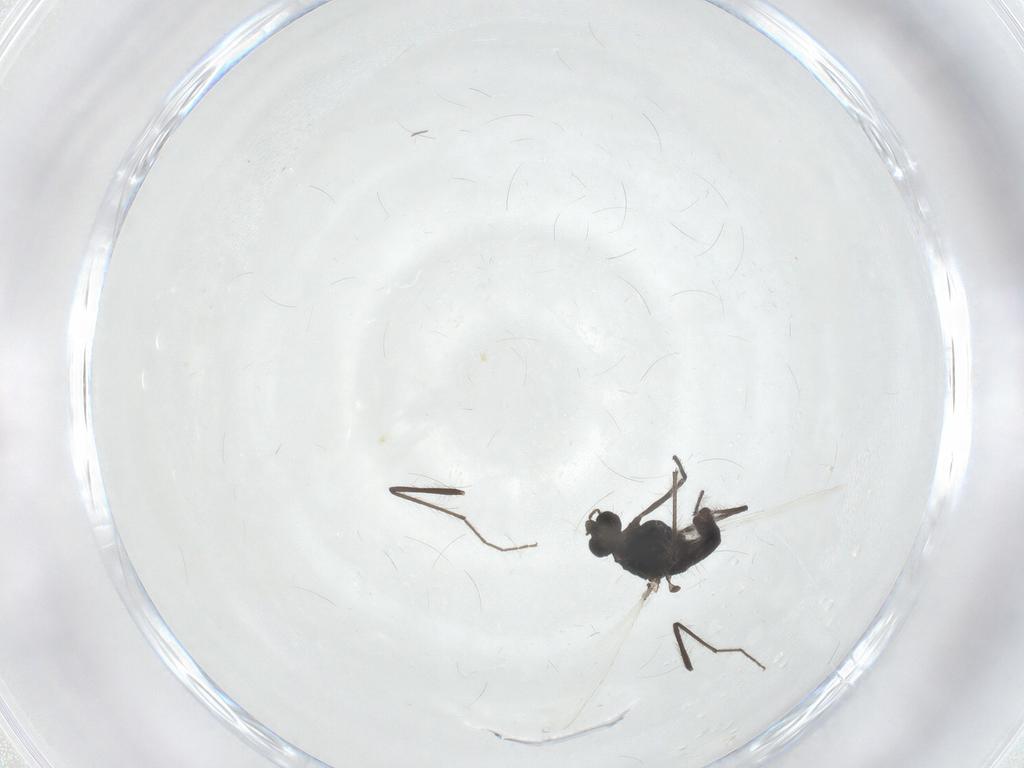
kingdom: Animalia
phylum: Arthropoda
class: Insecta
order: Diptera
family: Chironomidae
